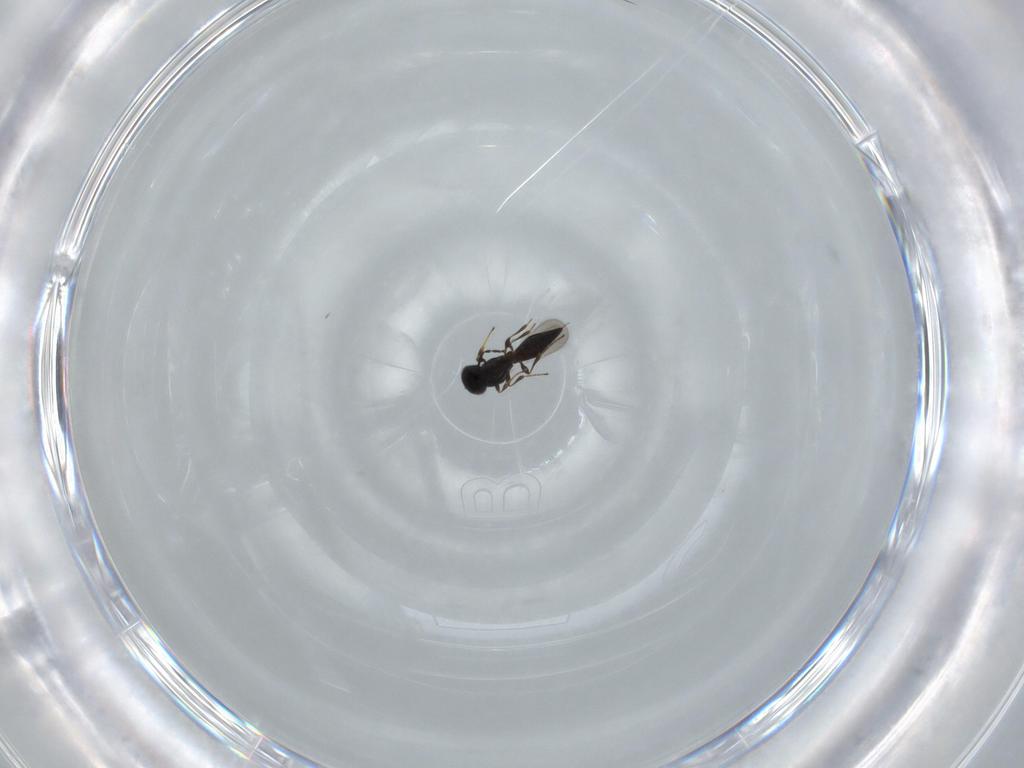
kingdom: Animalia
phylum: Arthropoda
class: Insecta
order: Diptera
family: Mythicomyiidae
